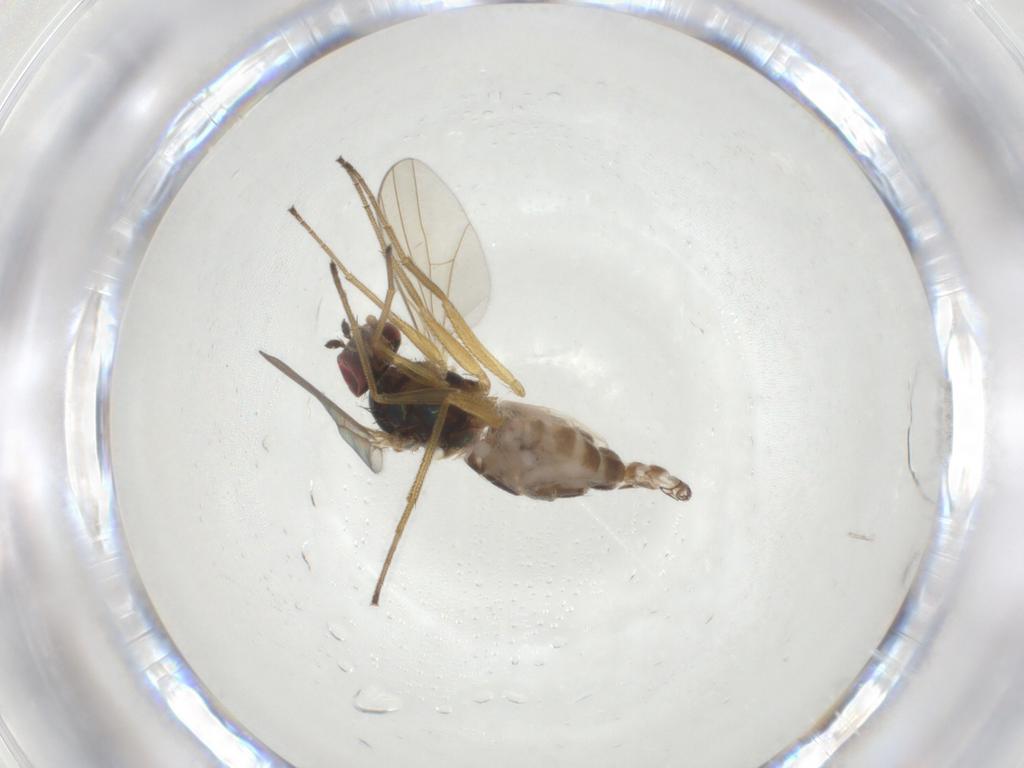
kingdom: Animalia
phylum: Arthropoda
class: Insecta
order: Diptera
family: Dolichopodidae
